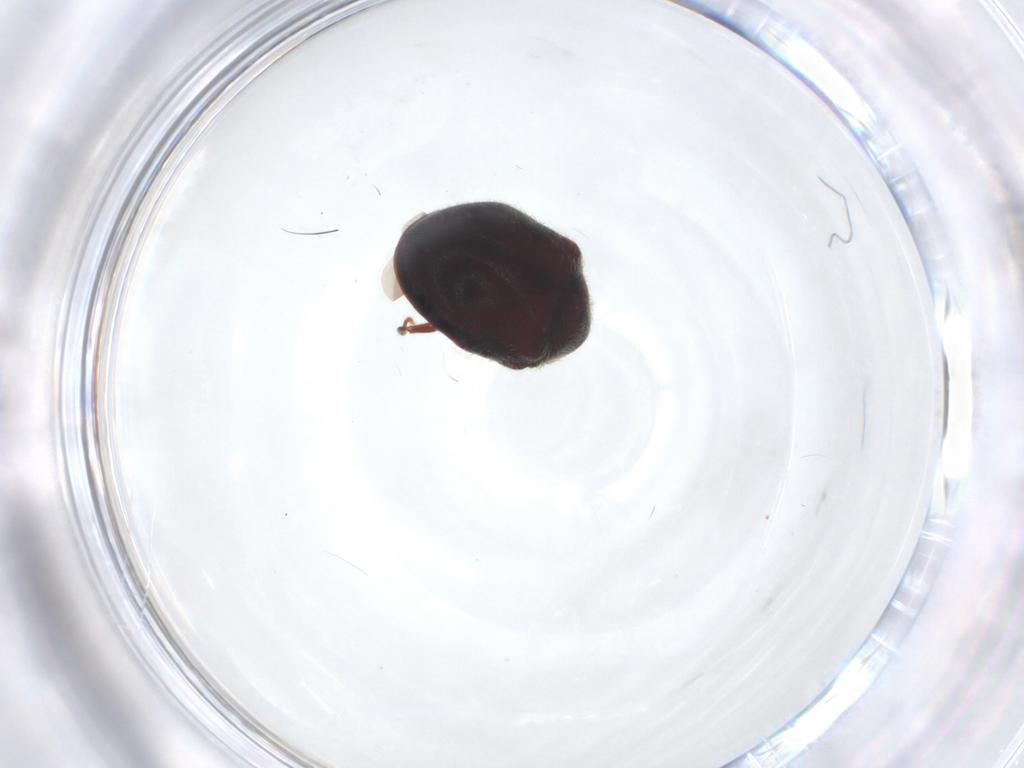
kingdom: Animalia
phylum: Arthropoda
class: Insecta
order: Coleoptera
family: Ptinidae
